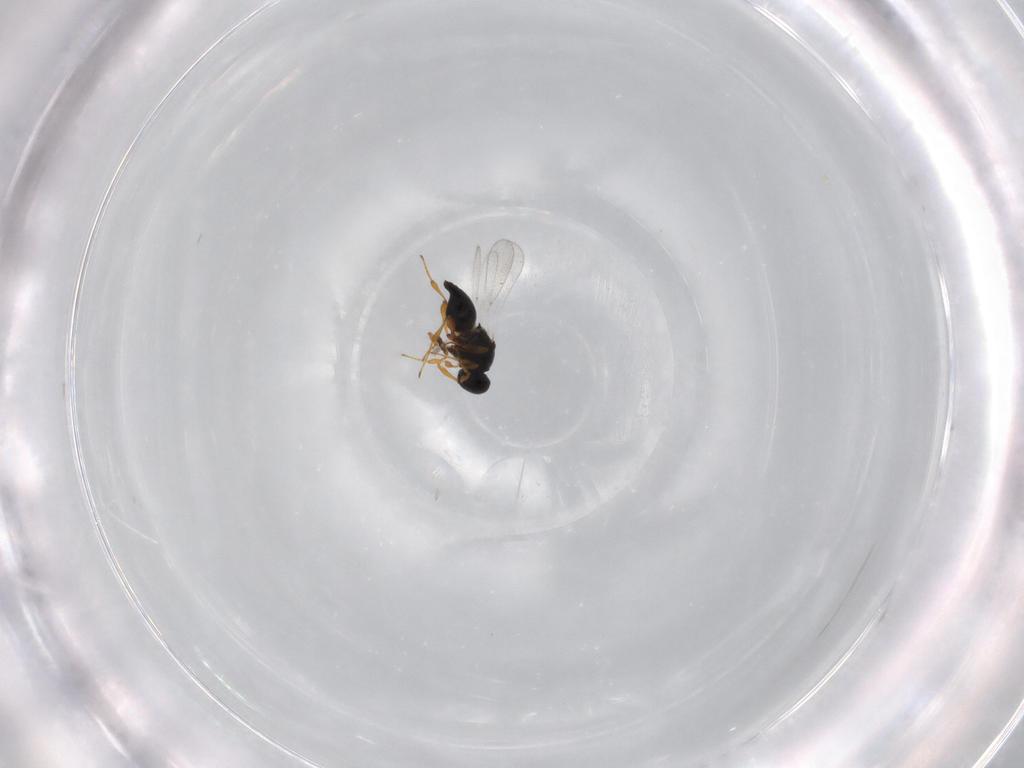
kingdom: Animalia
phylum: Arthropoda
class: Insecta
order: Hymenoptera
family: Platygastridae
